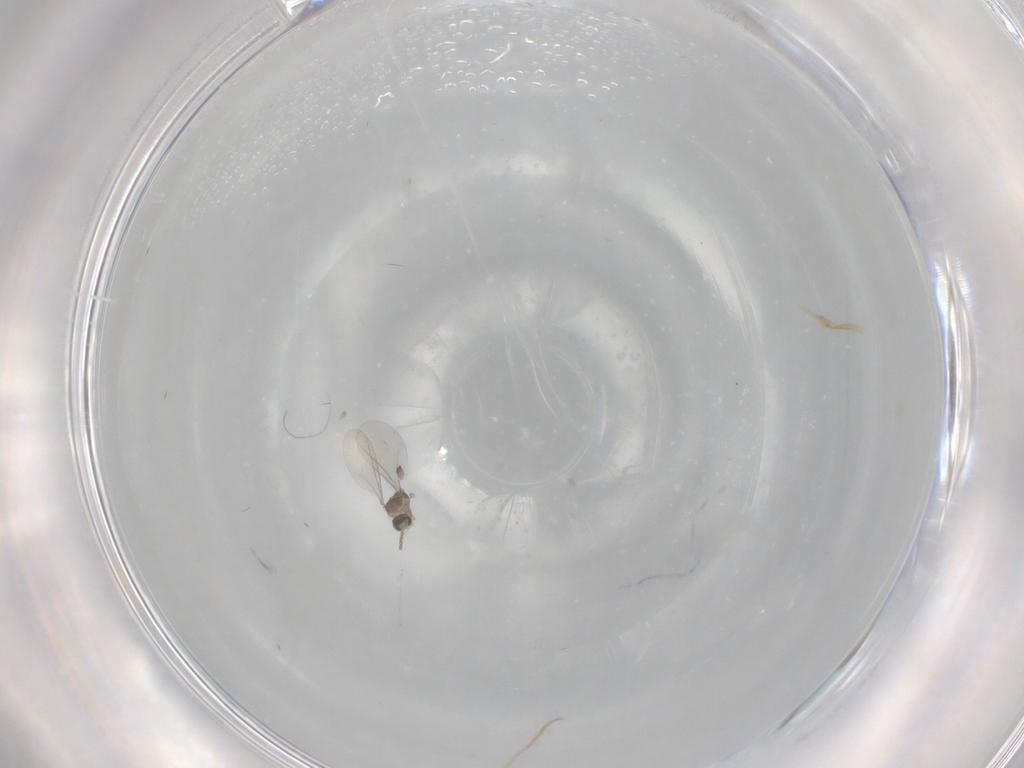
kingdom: Animalia
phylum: Arthropoda
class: Insecta
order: Diptera
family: Cecidomyiidae
